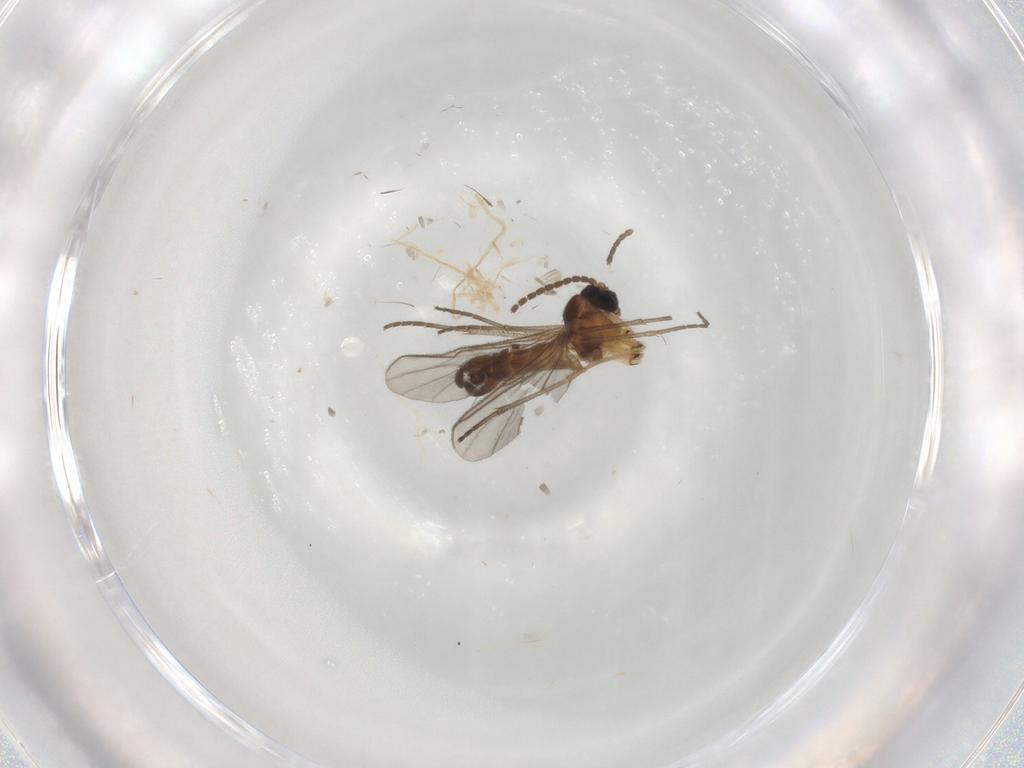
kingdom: Animalia
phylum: Arthropoda
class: Insecta
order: Diptera
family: Sciaridae
